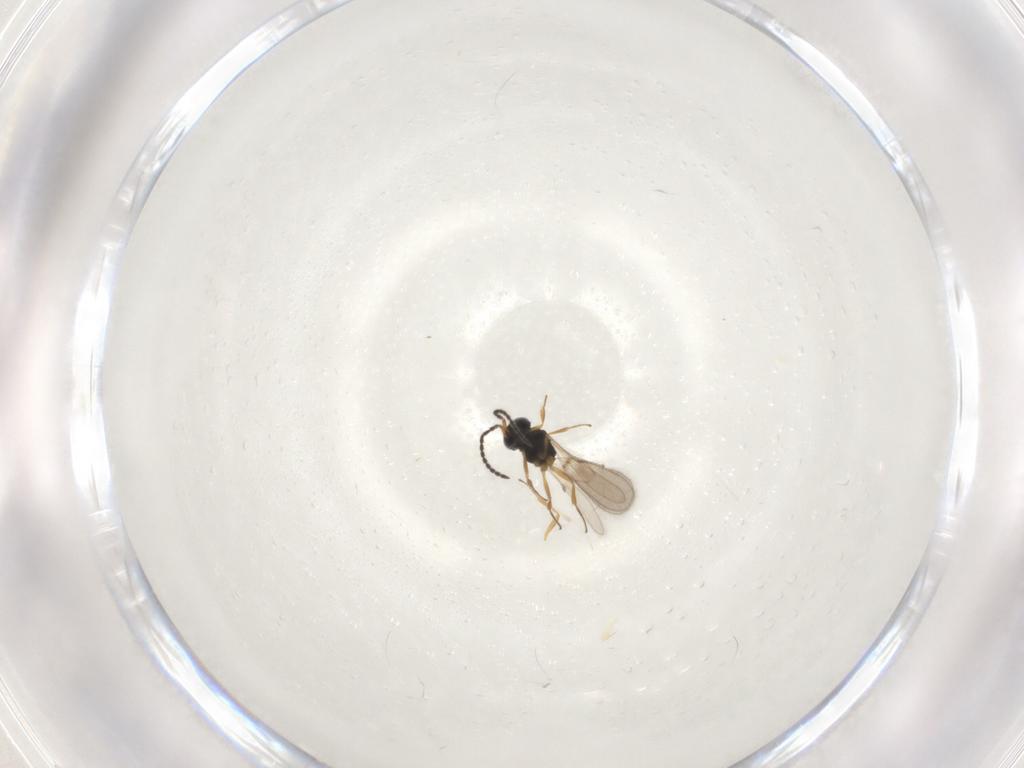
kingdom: Animalia
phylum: Arthropoda
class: Insecta
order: Hymenoptera
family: Scelionidae
